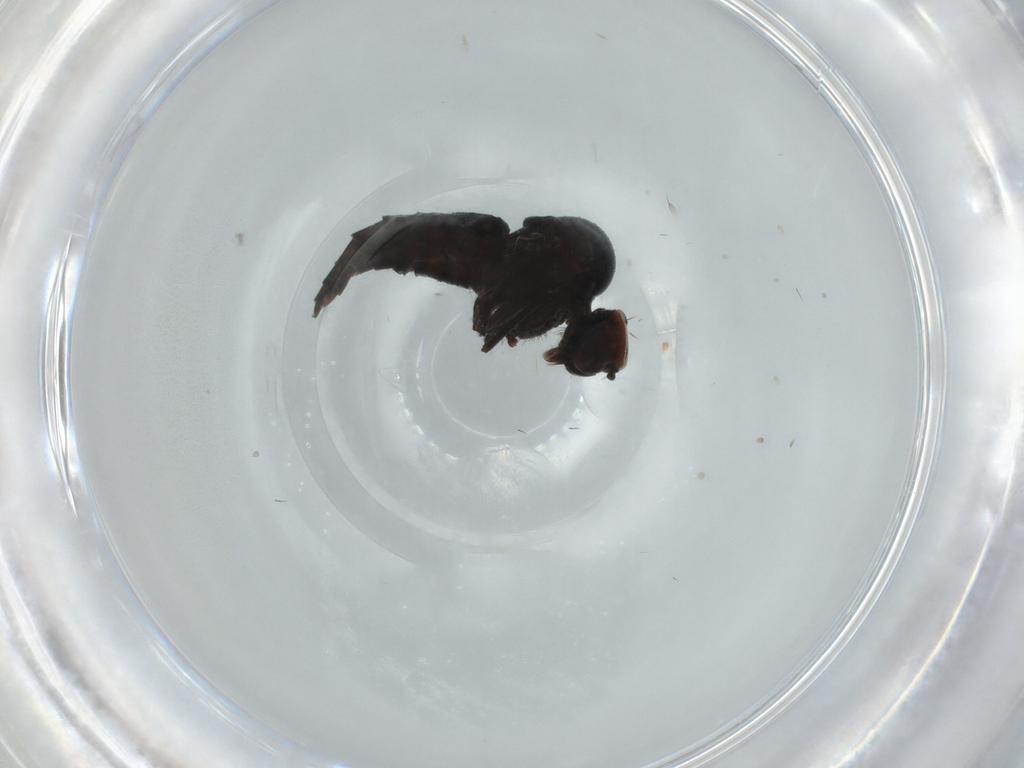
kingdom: Animalia
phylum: Arthropoda
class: Insecta
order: Diptera
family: Hybotidae
